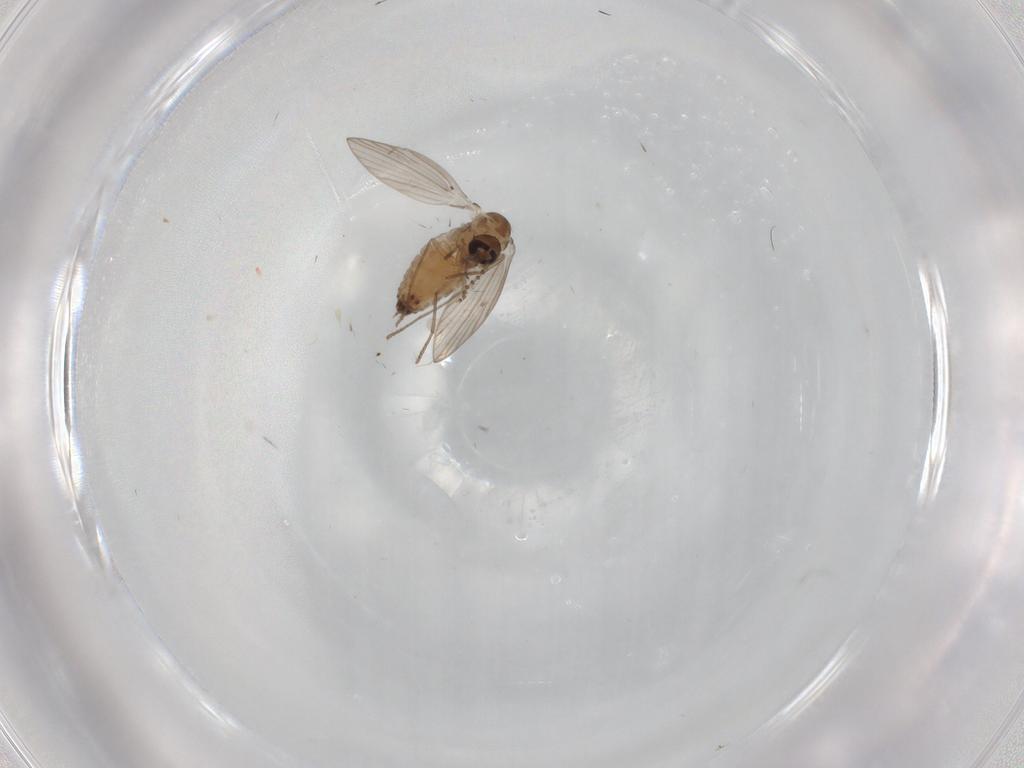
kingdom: Animalia
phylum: Arthropoda
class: Insecta
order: Diptera
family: Psychodidae
